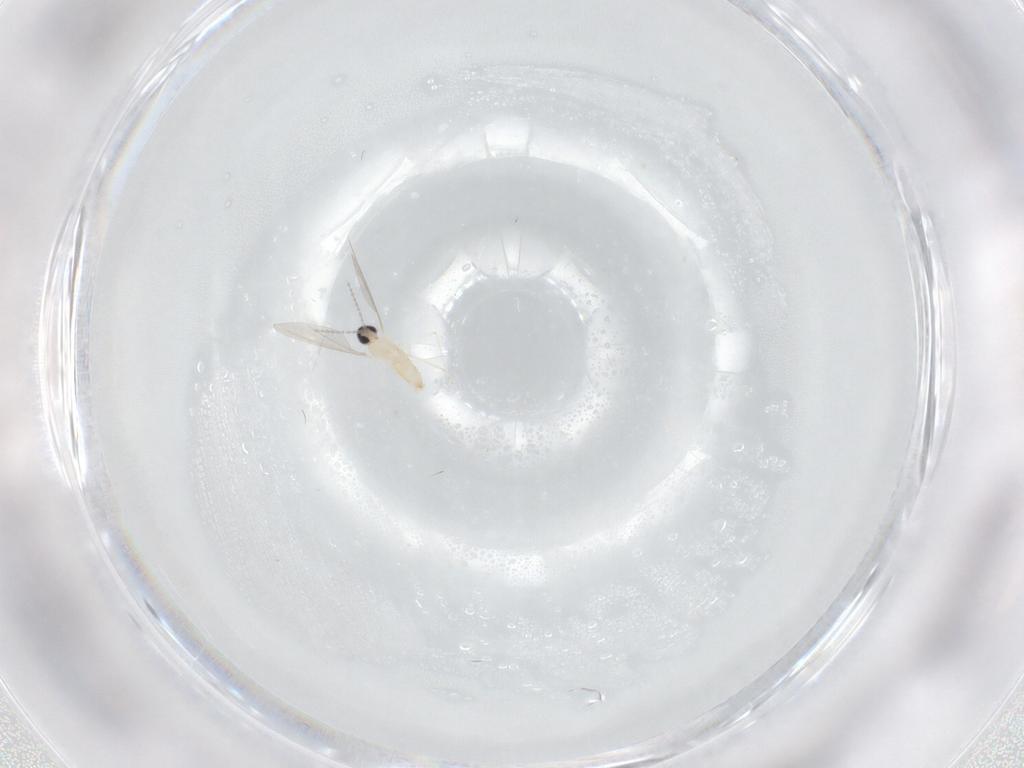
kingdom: Animalia
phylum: Arthropoda
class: Insecta
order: Diptera
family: Cecidomyiidae
